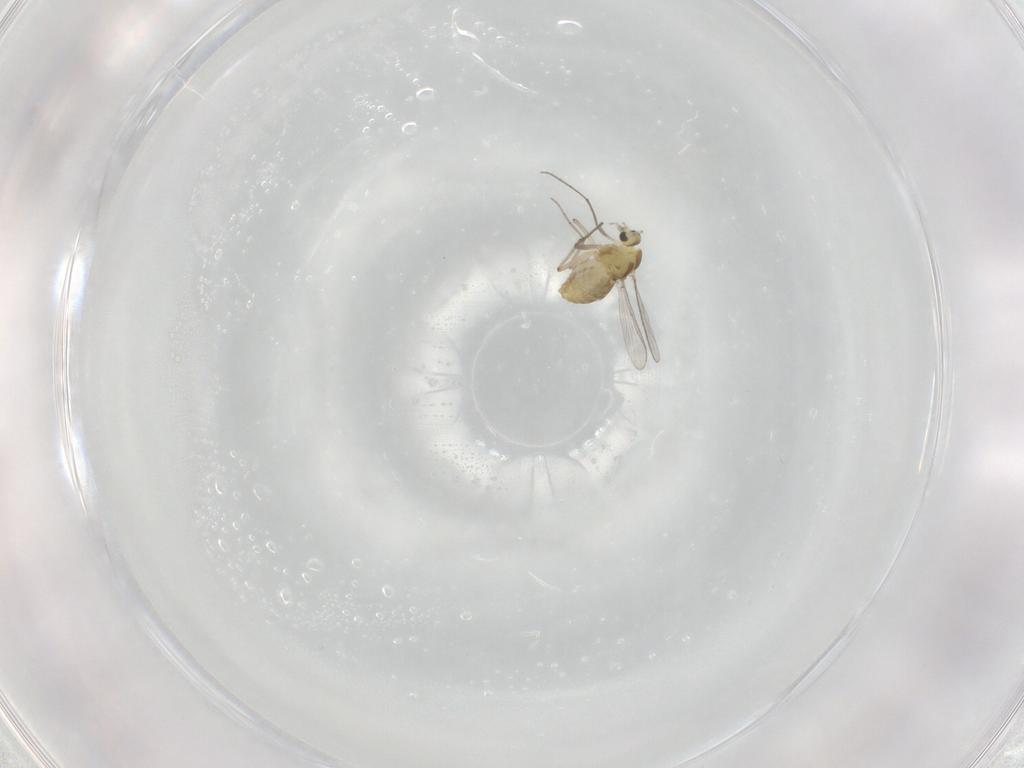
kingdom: Animalia
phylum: Arthropoda
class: Insecta
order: Diptera
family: Chironomidae
